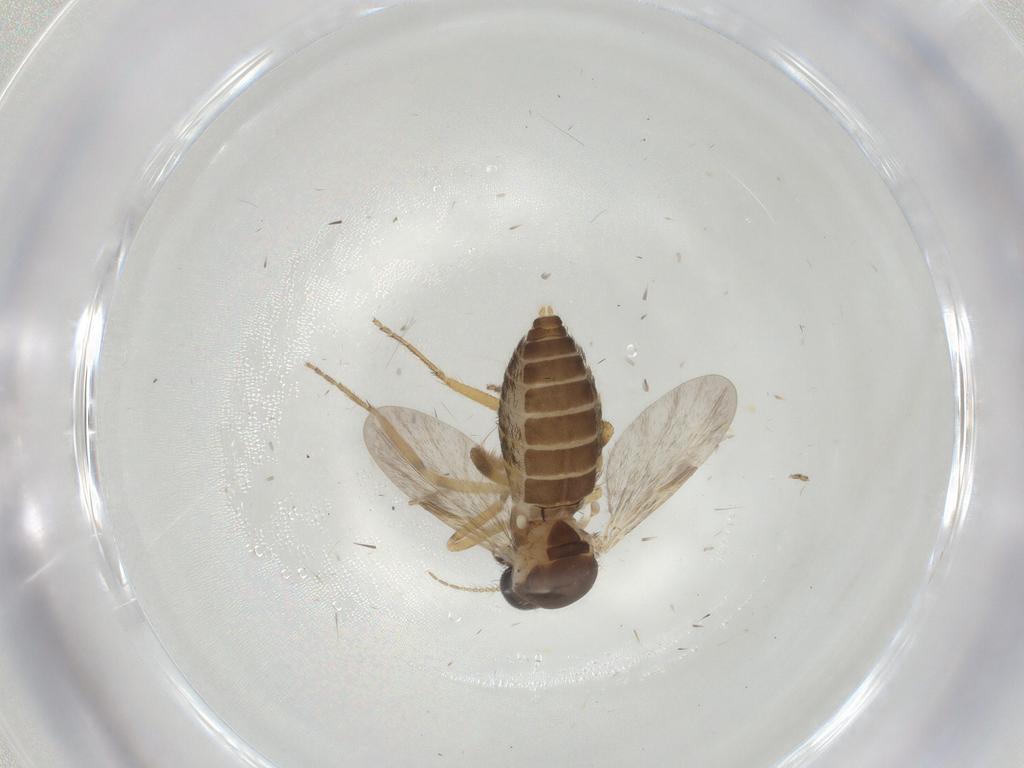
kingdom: Animalia
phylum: Arthropoda
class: Insecta
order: Diptera
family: Ceratopogonidae
